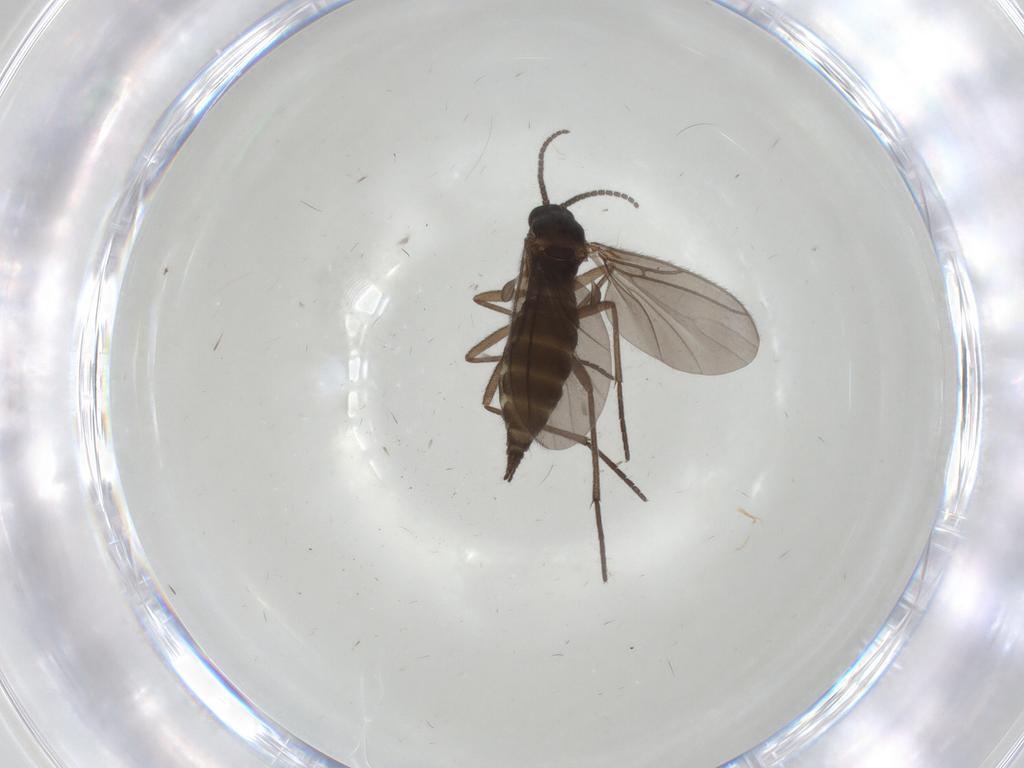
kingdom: Animalia
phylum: Arthropoda
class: Insecta
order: Diptera
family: Sciaridae
